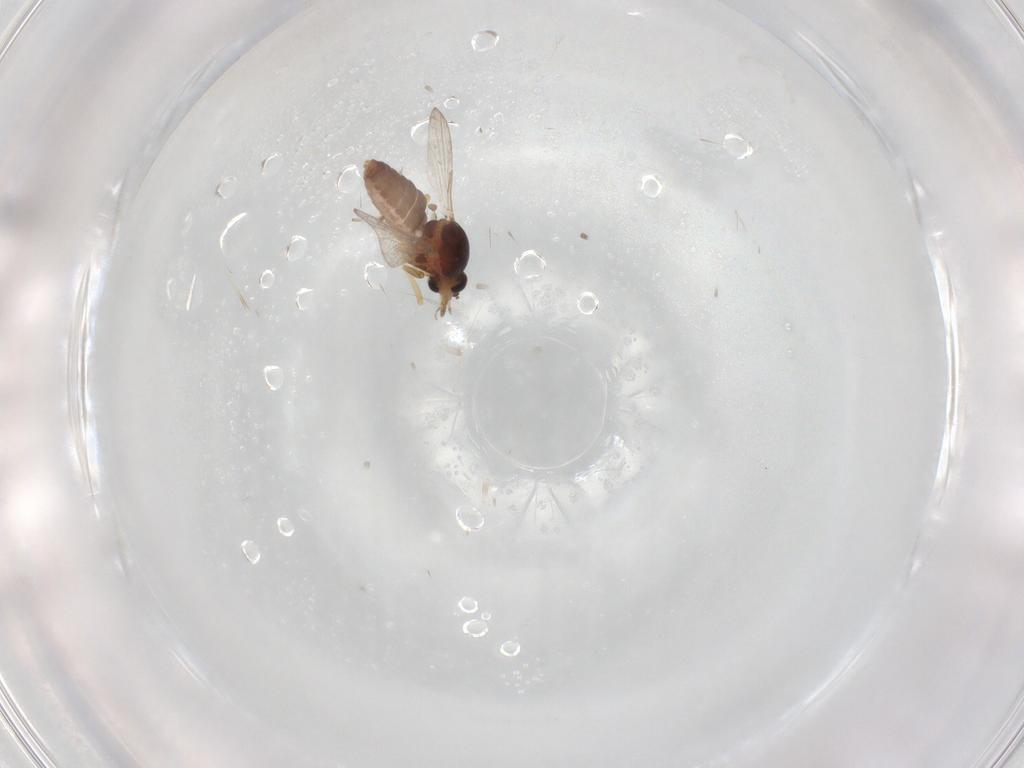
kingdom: Animalia
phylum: Arthropoda
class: Insecta
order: Diptera
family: Ceratopogonidae
